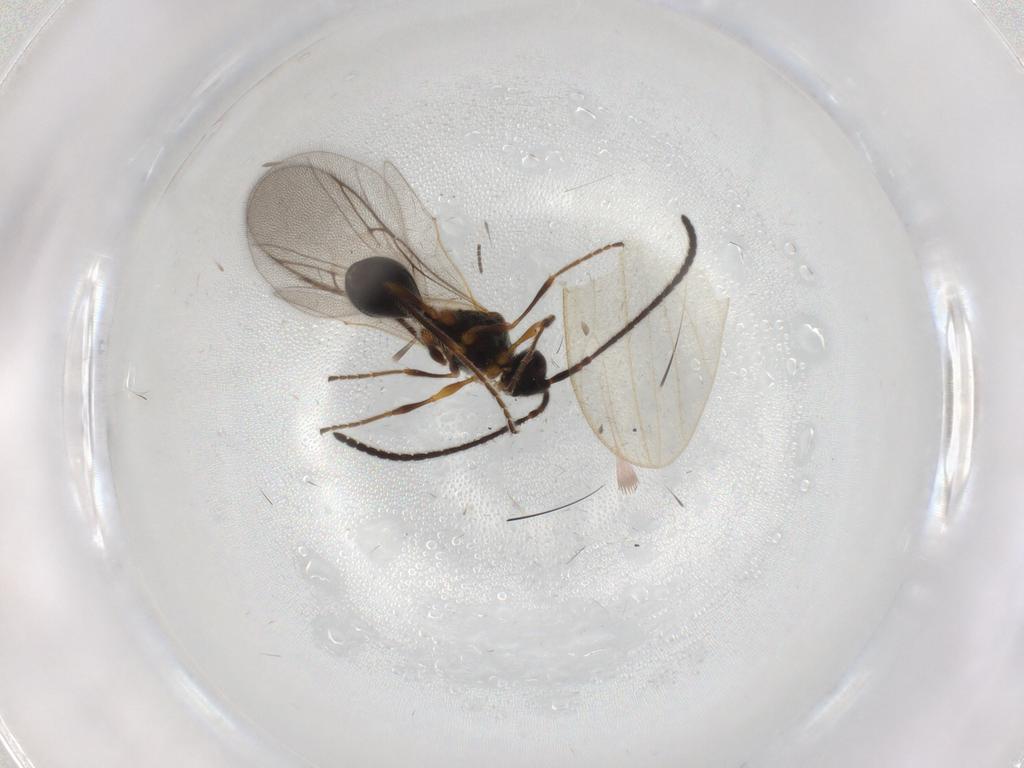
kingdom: Animalia
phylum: Arthropoda
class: Insecta
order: Hymenoptera
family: Diapriidae
